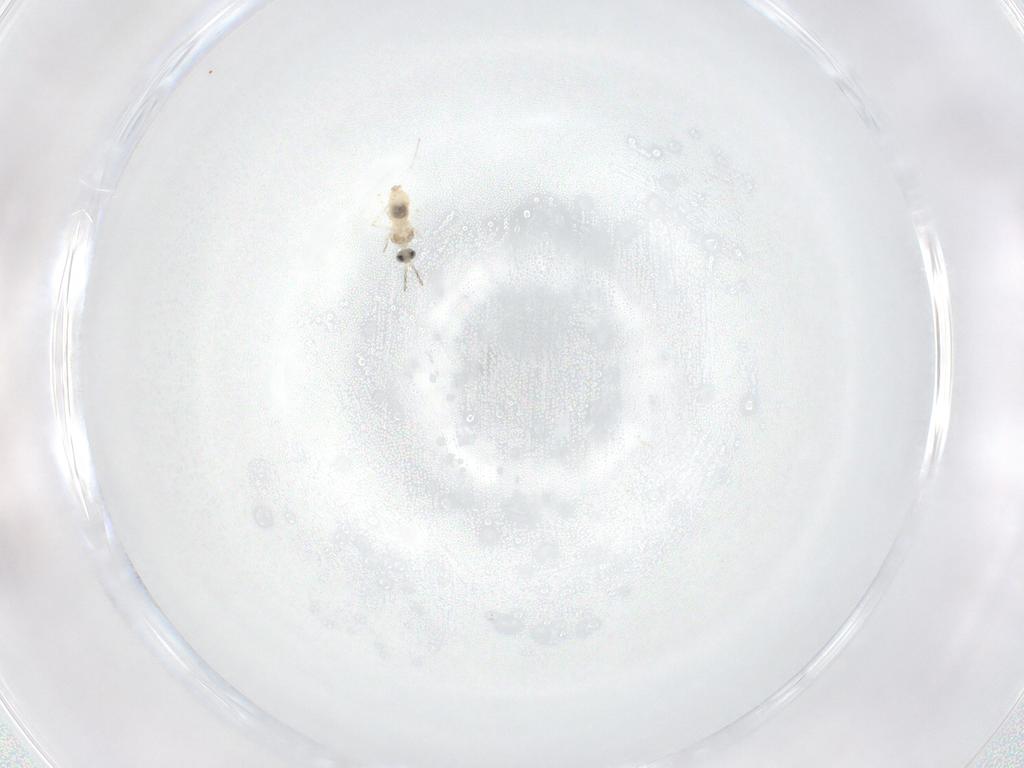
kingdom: Animalia
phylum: Arthropoda
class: Insecta
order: Diptera
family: Cecidomyiidae
